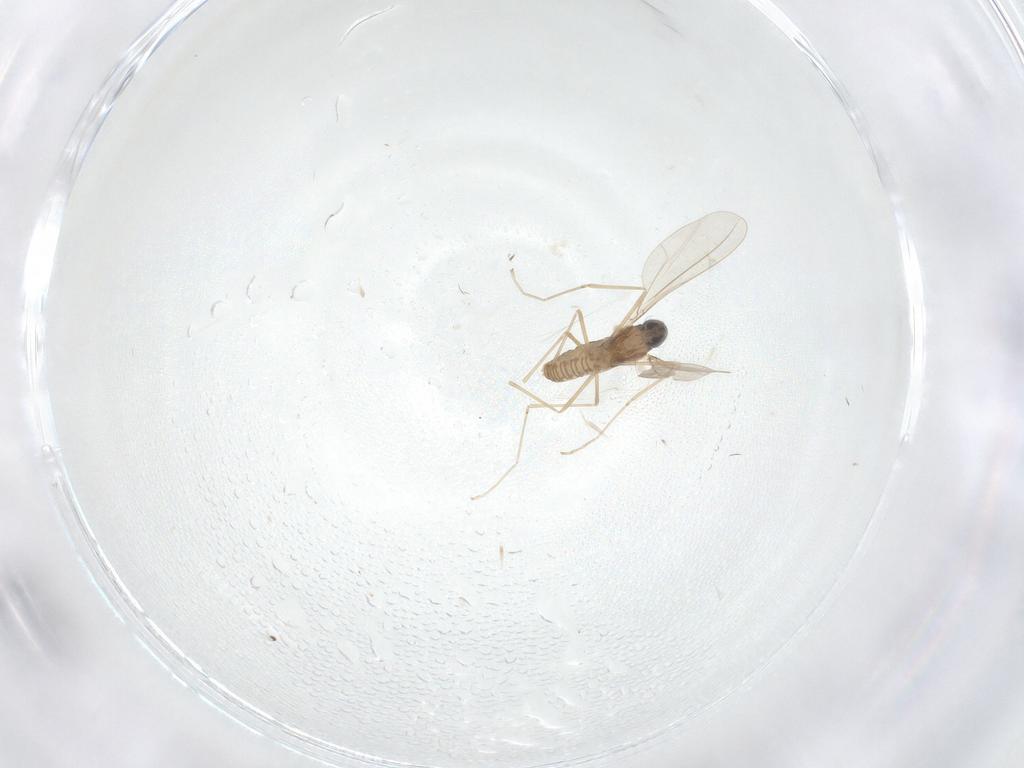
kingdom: Animalia
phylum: Arthropoda
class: Insecta
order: Diptera
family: Cecidomyiidae
